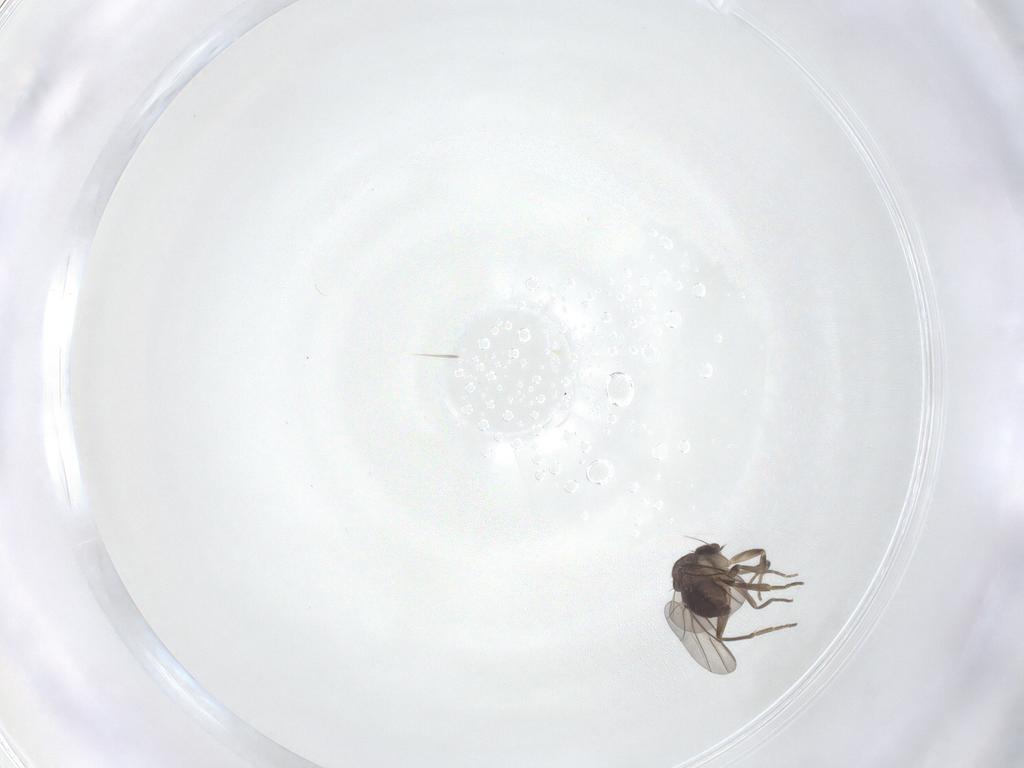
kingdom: Animalia
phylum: Arthropoda
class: Insecta
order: Diptera
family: Phoridae
